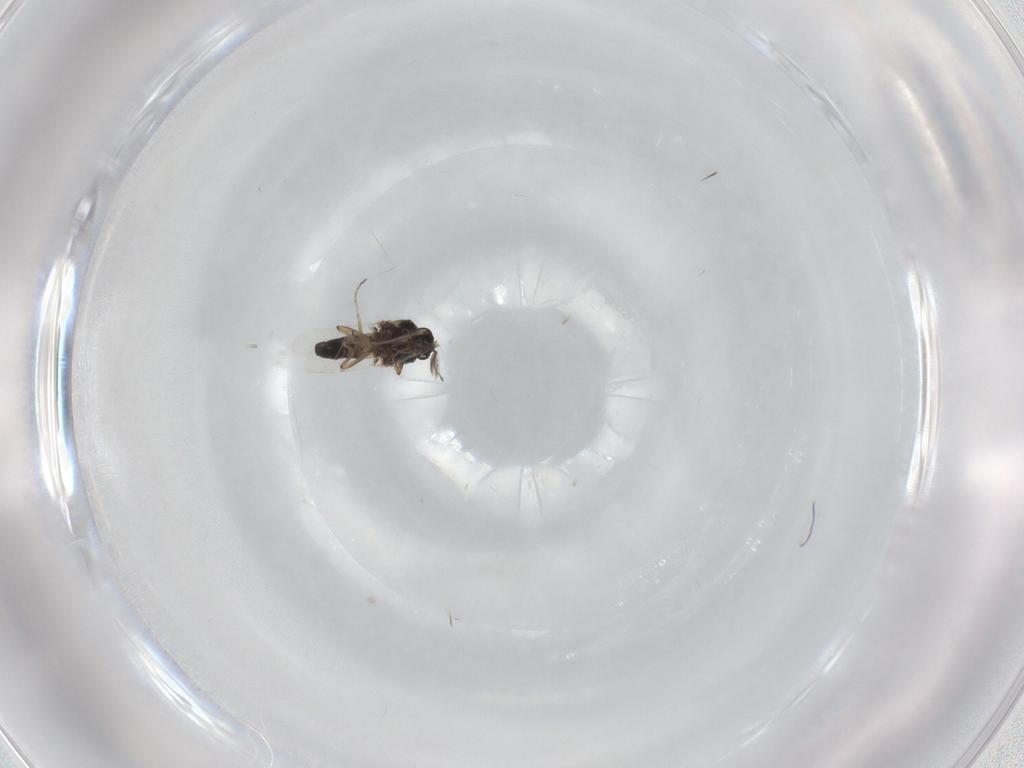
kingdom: Animalia
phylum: Arthropoda
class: Insecta
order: Diptera
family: Ceratopogonidae
